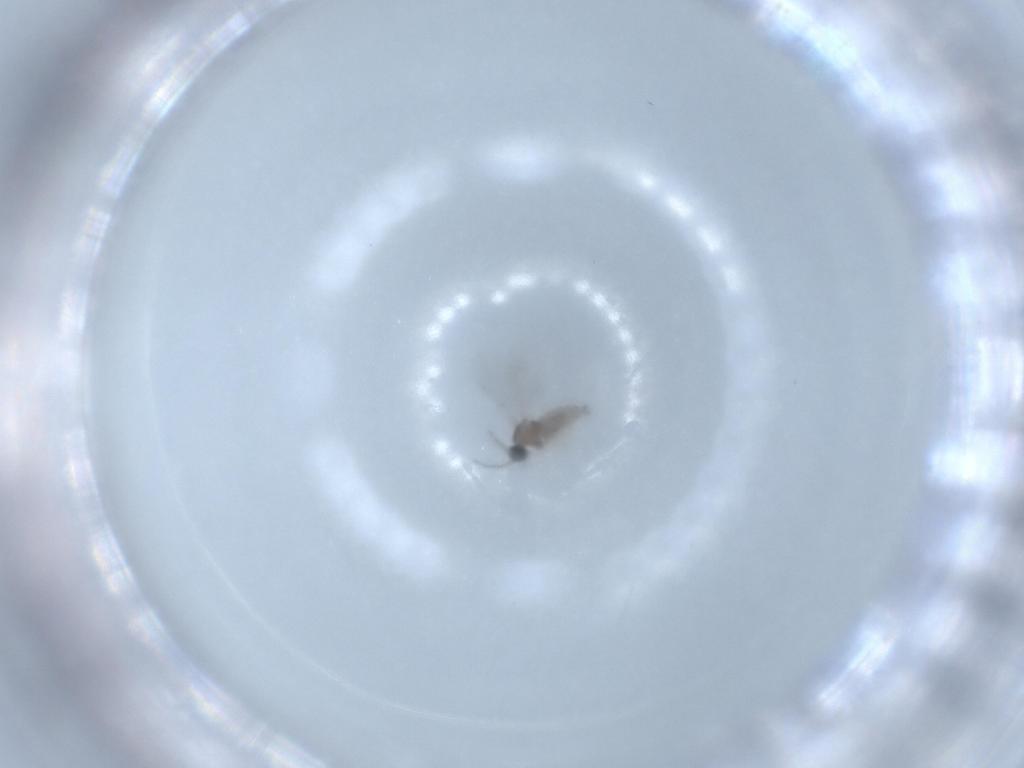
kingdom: Animalia
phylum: Arthropoda
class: Insecta
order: Diptera
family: Cecidomyiidae
